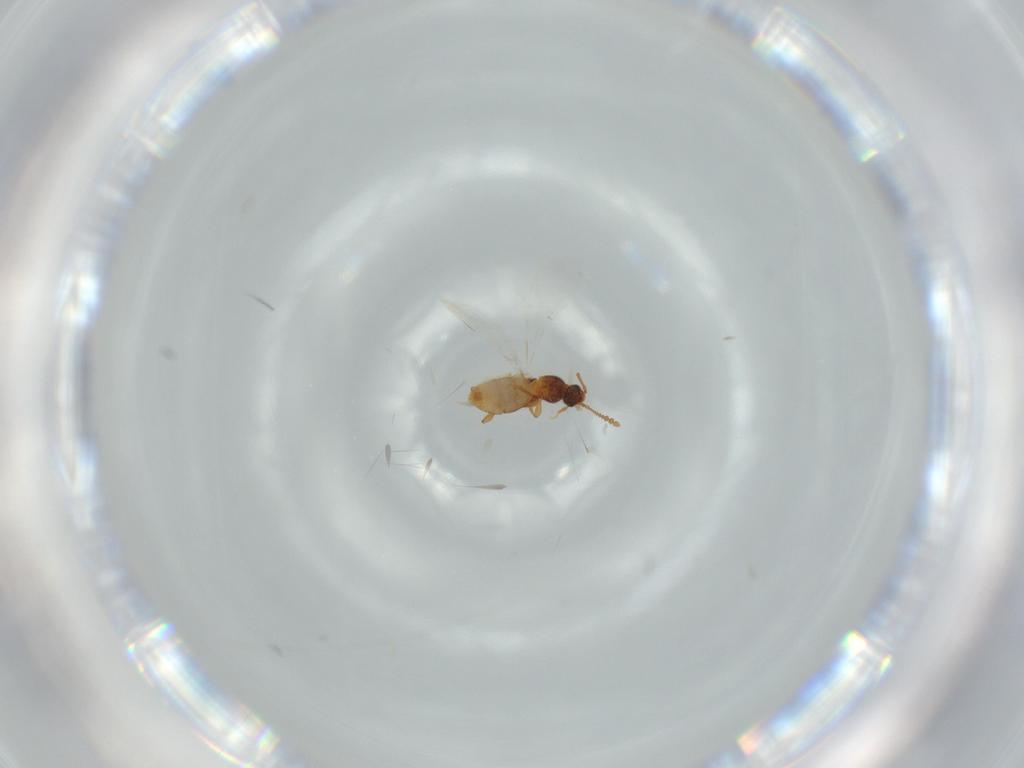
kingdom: Animalia
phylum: Arthropoda
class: Insecta
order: Coleoptera
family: Staphylinidae
